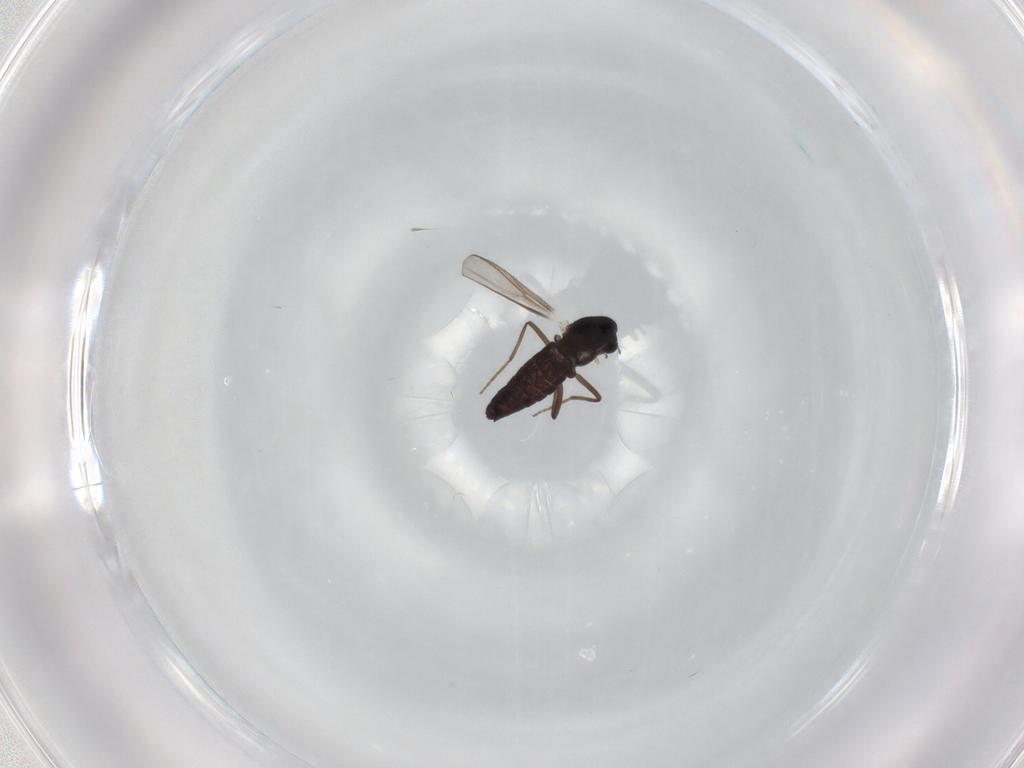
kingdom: Animalia
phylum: Arthropoda
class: Insecta
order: Diptera
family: Chironomidae
